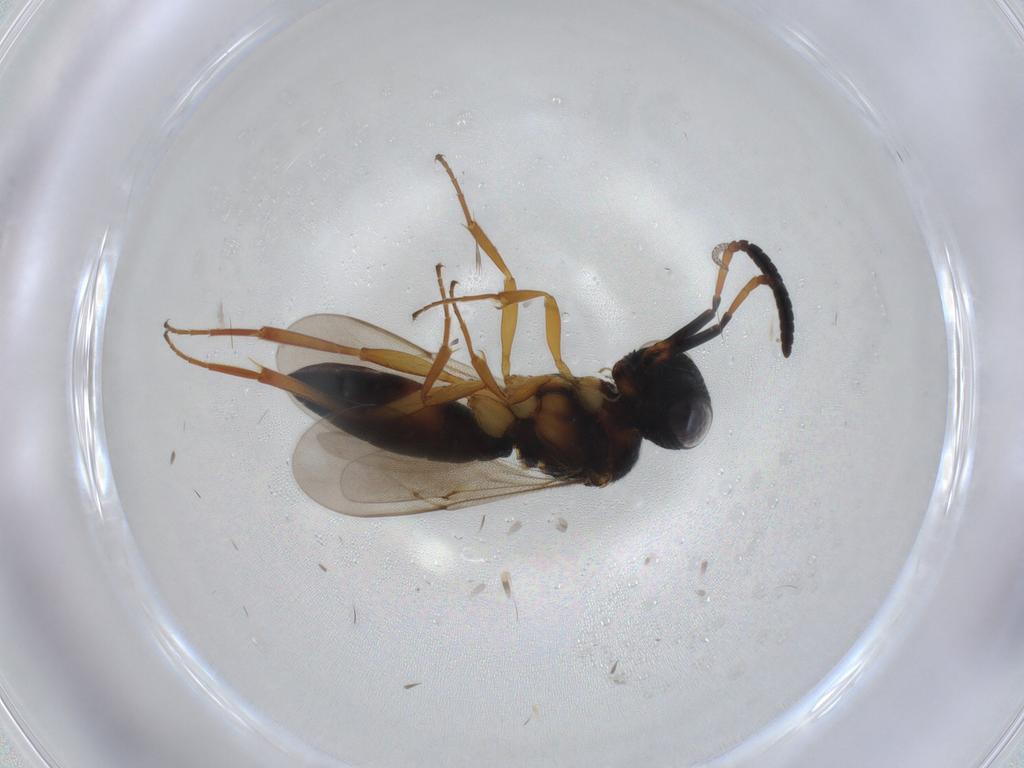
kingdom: Animalia
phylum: Arthropoda
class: Insecta
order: Hymenoptera
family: Scelionidae
